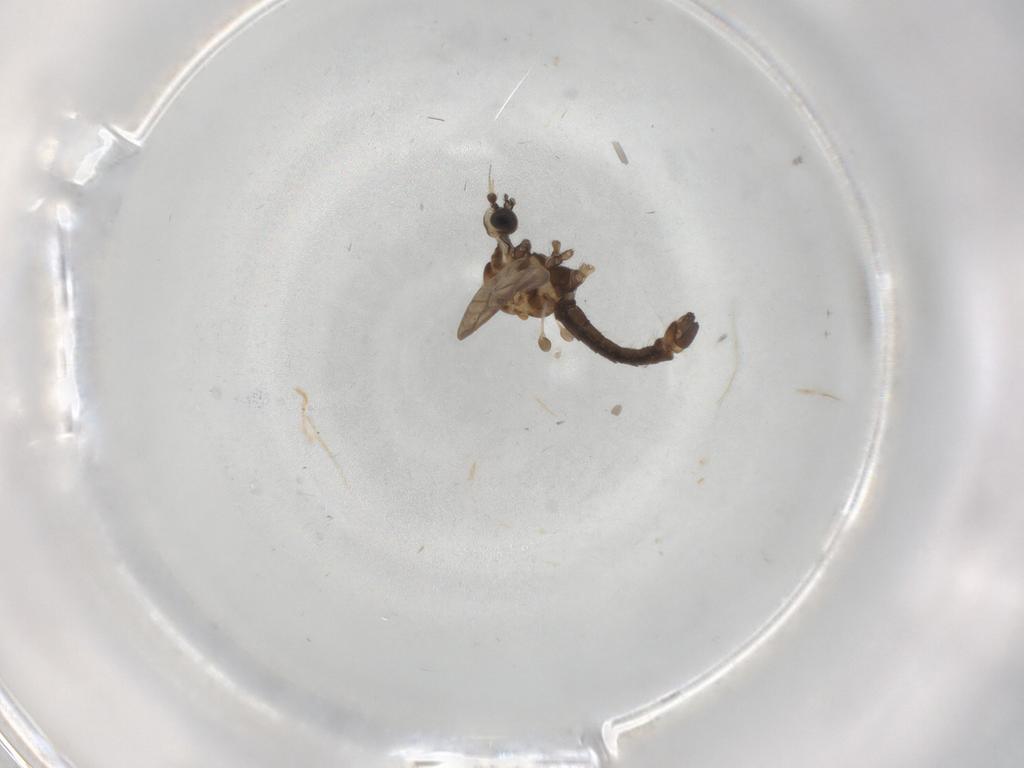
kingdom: Animalia
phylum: Arthropoda
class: Insecta
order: Diptera
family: Limoniidae
